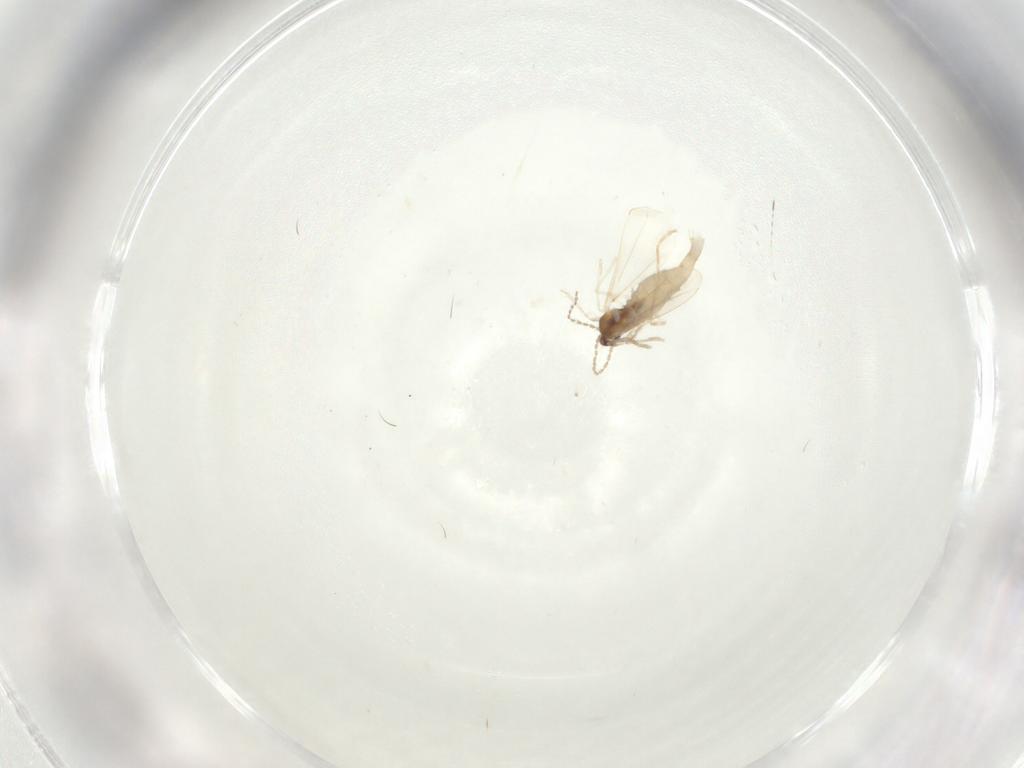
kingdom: Animalia
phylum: Arthropoda
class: Insecta
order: Diptera
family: Cecidomyiidae
